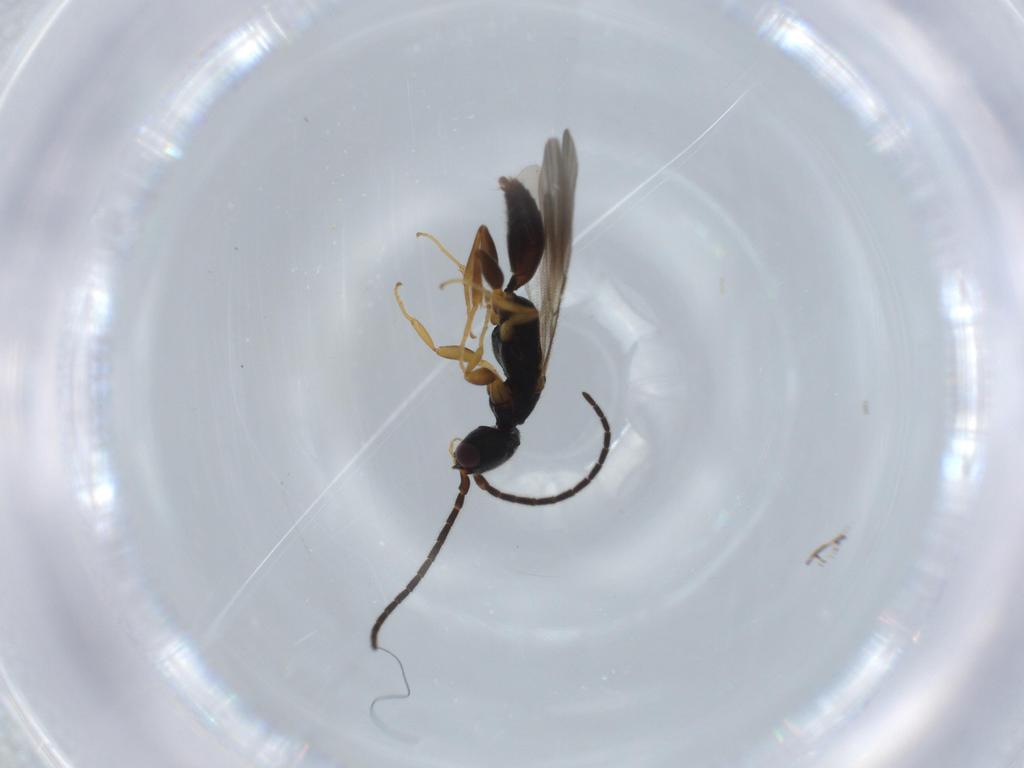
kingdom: Animalia
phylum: Arthropoda
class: Insecta
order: Hymenoptera
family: Bethylidae
